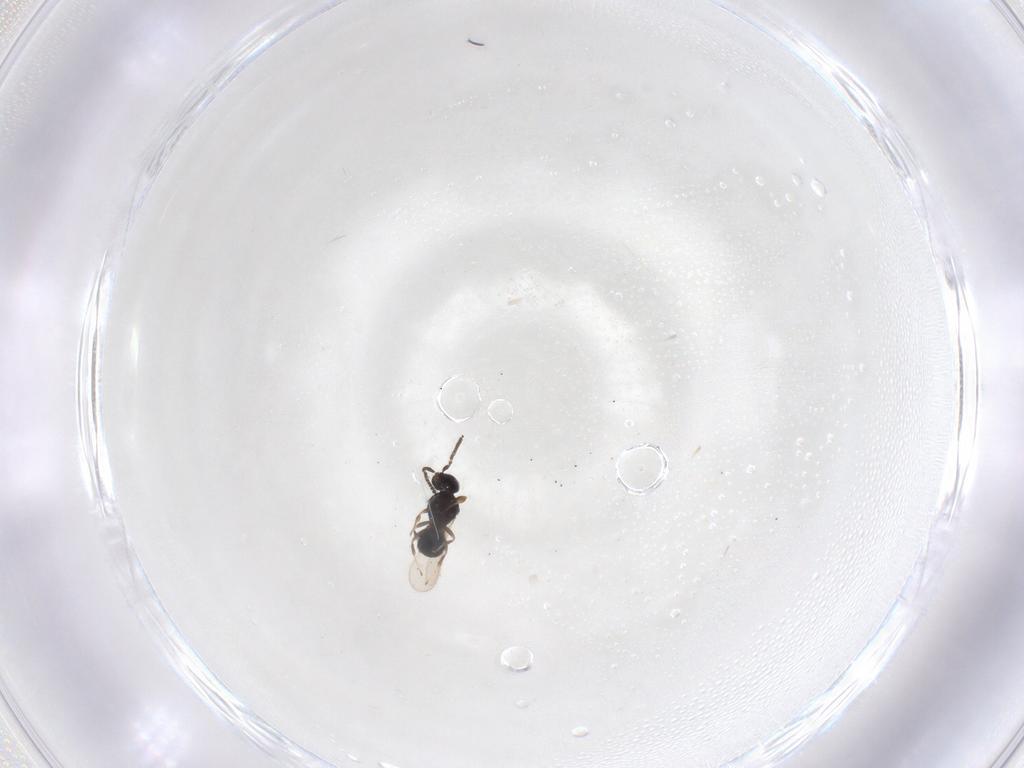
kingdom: Animalia
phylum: Arthropoda
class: Insecta
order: Hymenoptera
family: Scelionidae
